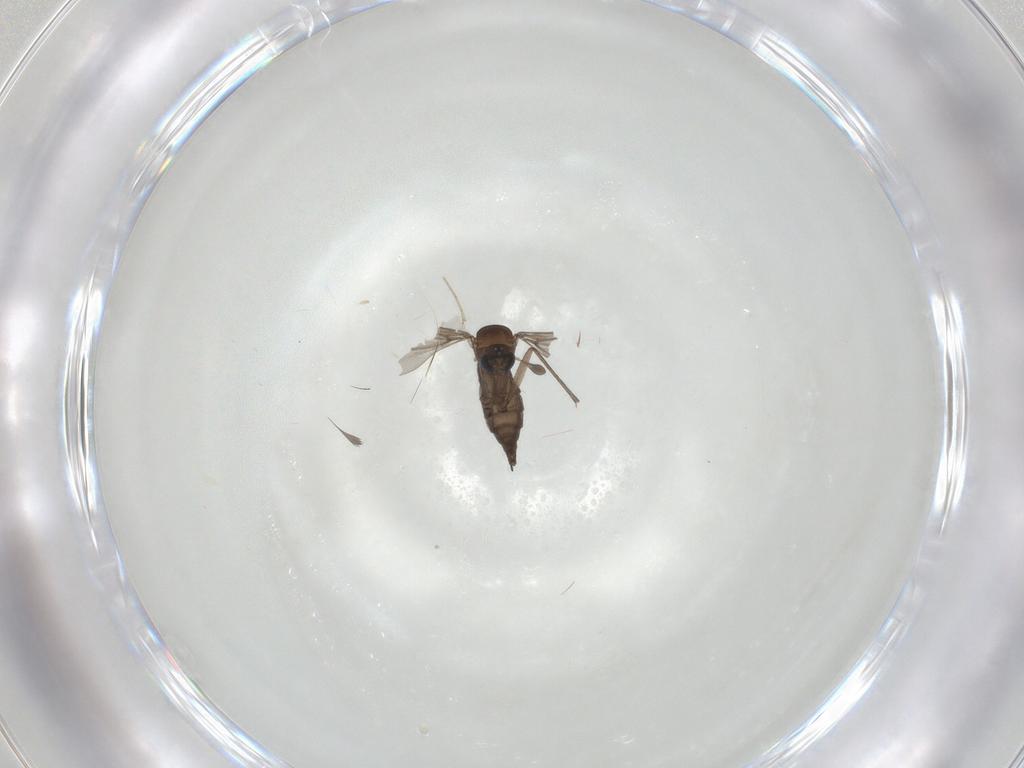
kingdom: Animalia
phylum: Arthropoda
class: Insecta
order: Diptera
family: Sciaridae
